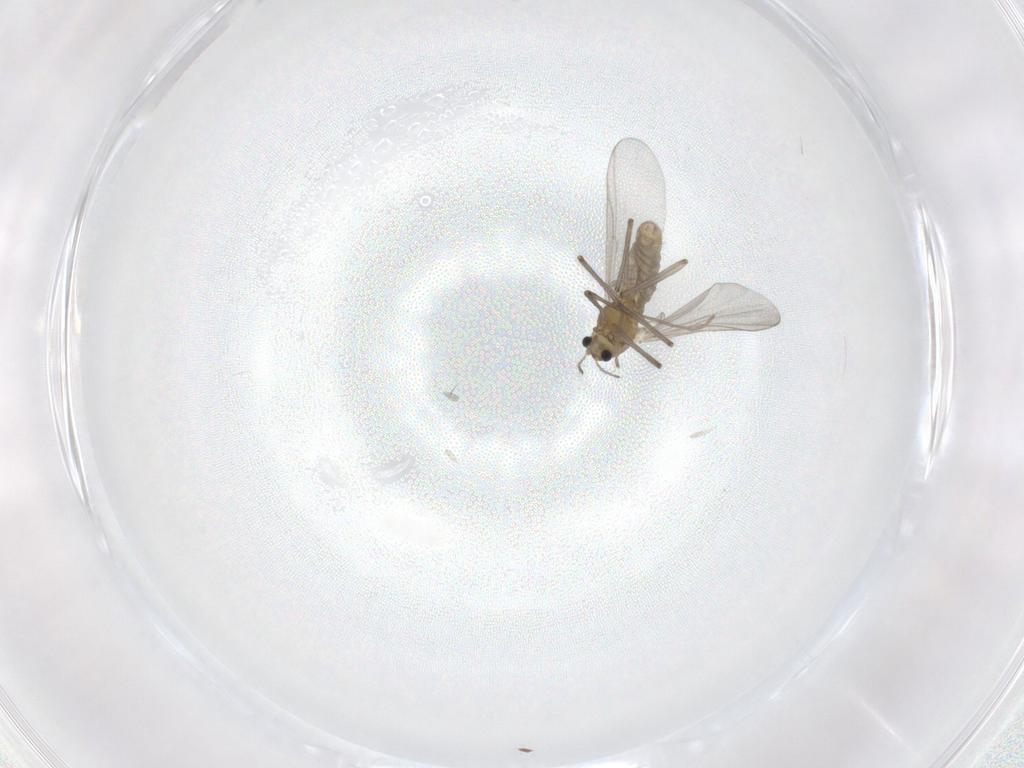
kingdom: Animalia
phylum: Arthropoda
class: Insecta
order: Diptera
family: Chironomidae
